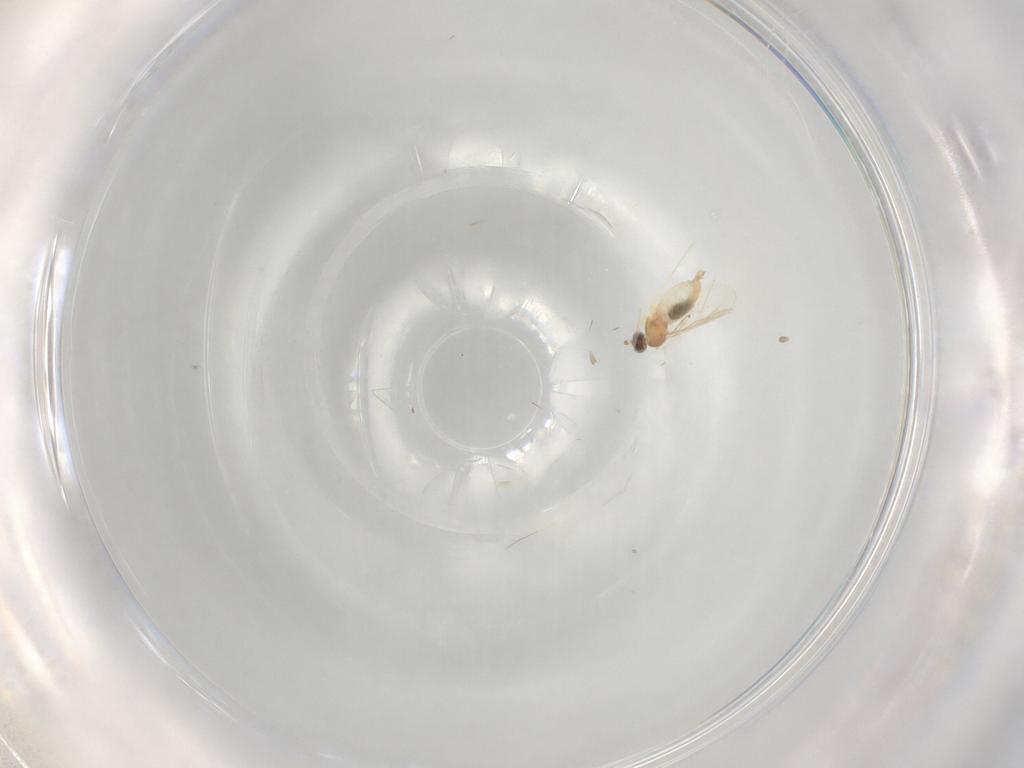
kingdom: Animalia
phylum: Arthropoda
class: Insecta
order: Diptera
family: Cecidomyiidae
